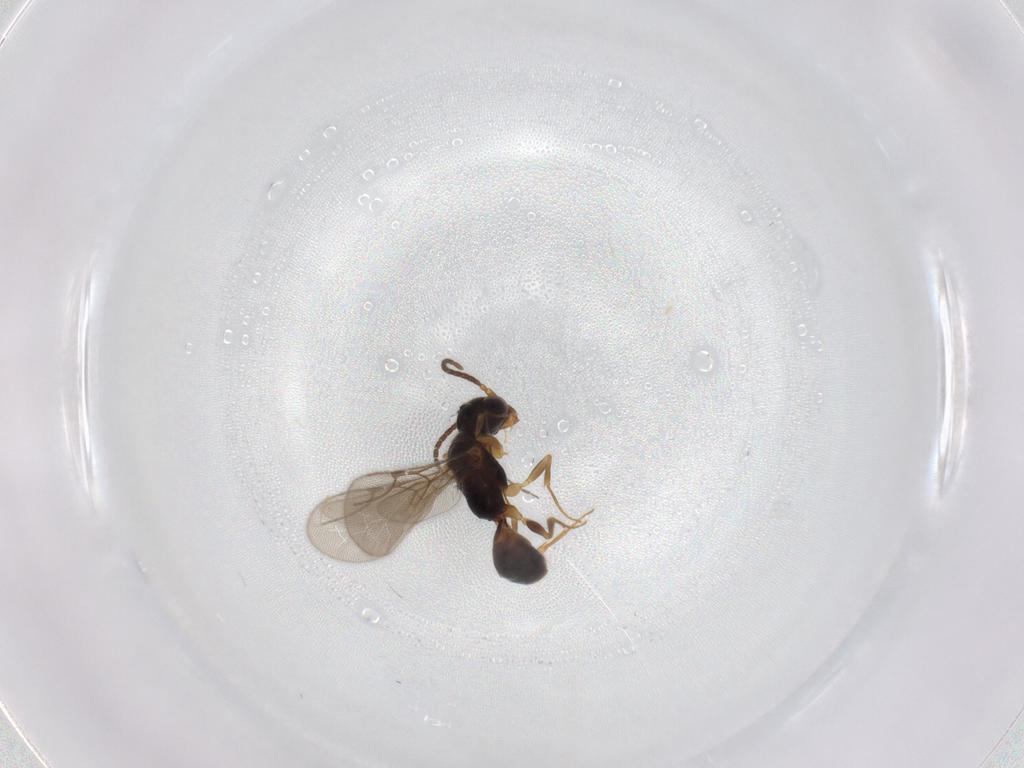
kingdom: Animalia
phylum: Arthropoda
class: Insecta
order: Hymenoptera
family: Bethylidae
